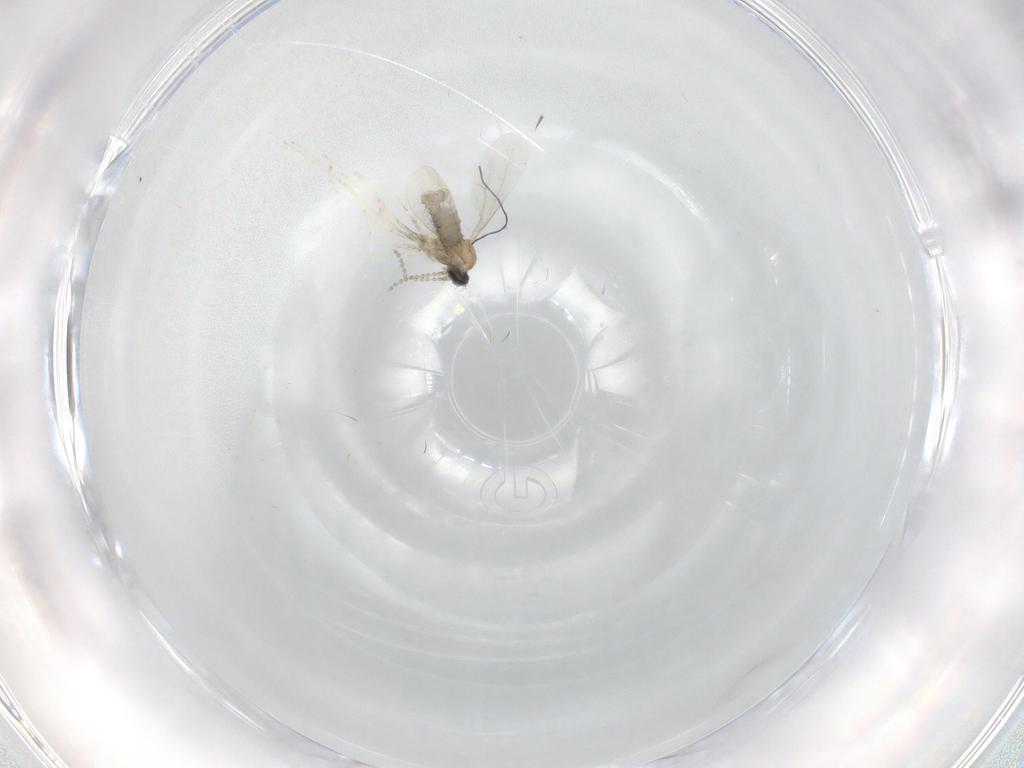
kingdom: Animalia
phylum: Arthropoda
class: Insecta
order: Diptera
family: Cecidomyiidae
